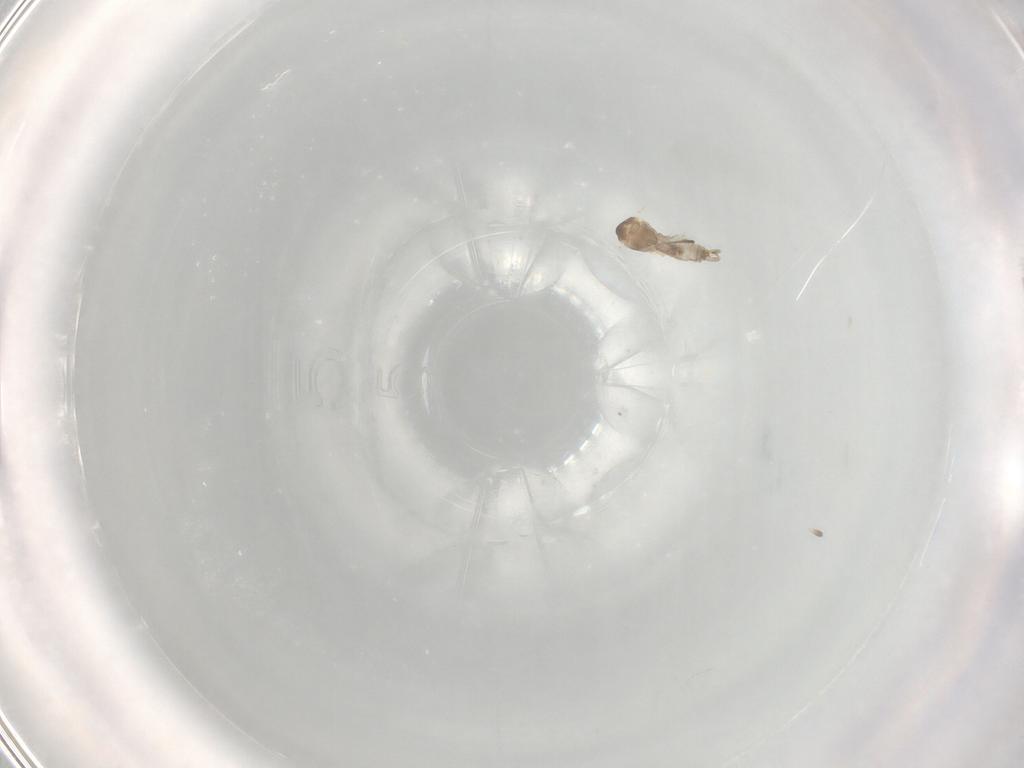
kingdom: Animalia
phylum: Arthropoda
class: Insecta
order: Diptera
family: Cecidomyiidae
